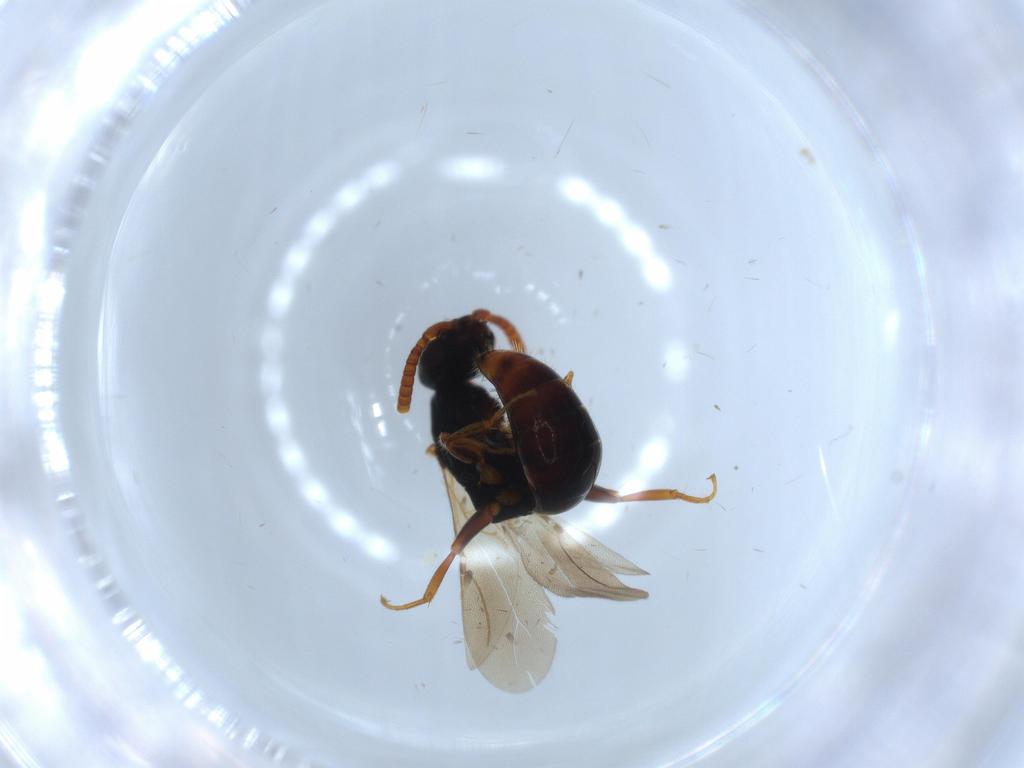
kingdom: Animalia
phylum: Arthropoda
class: Insecta
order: Hymenoptera
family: Bethylidae
